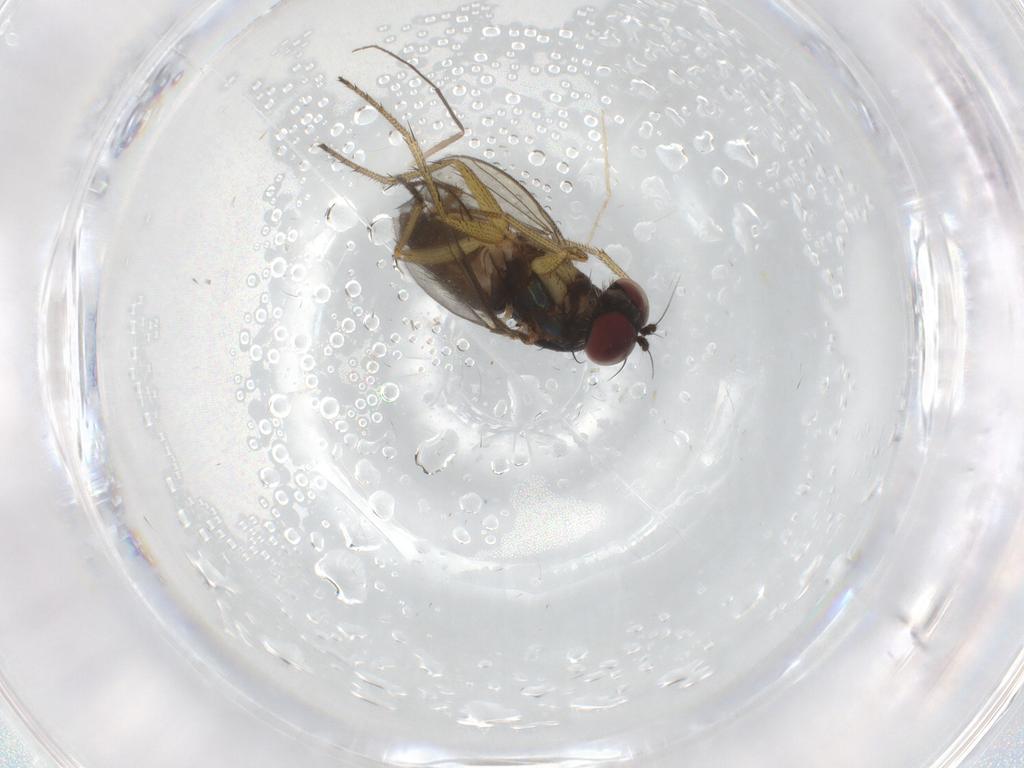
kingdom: Animalia
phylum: Arthropoda
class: Insecta
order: Diptera
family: Dolichopodidae
